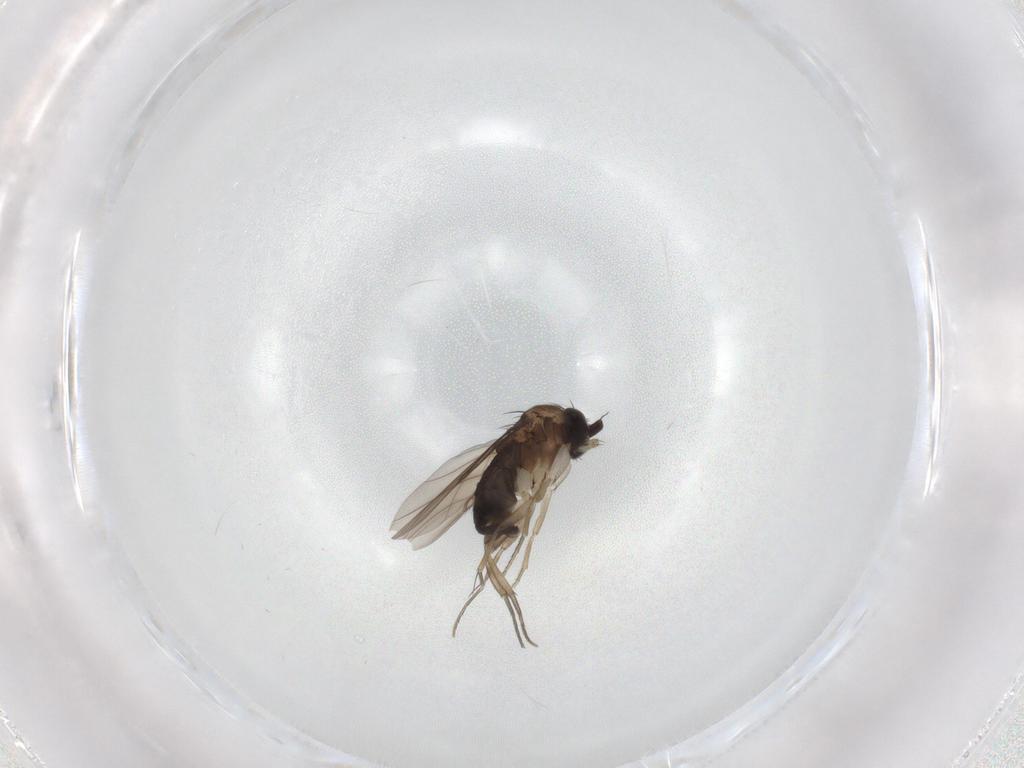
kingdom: Animalia
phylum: Arthropoda
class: Insecta
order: Diptera
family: Phoridae
